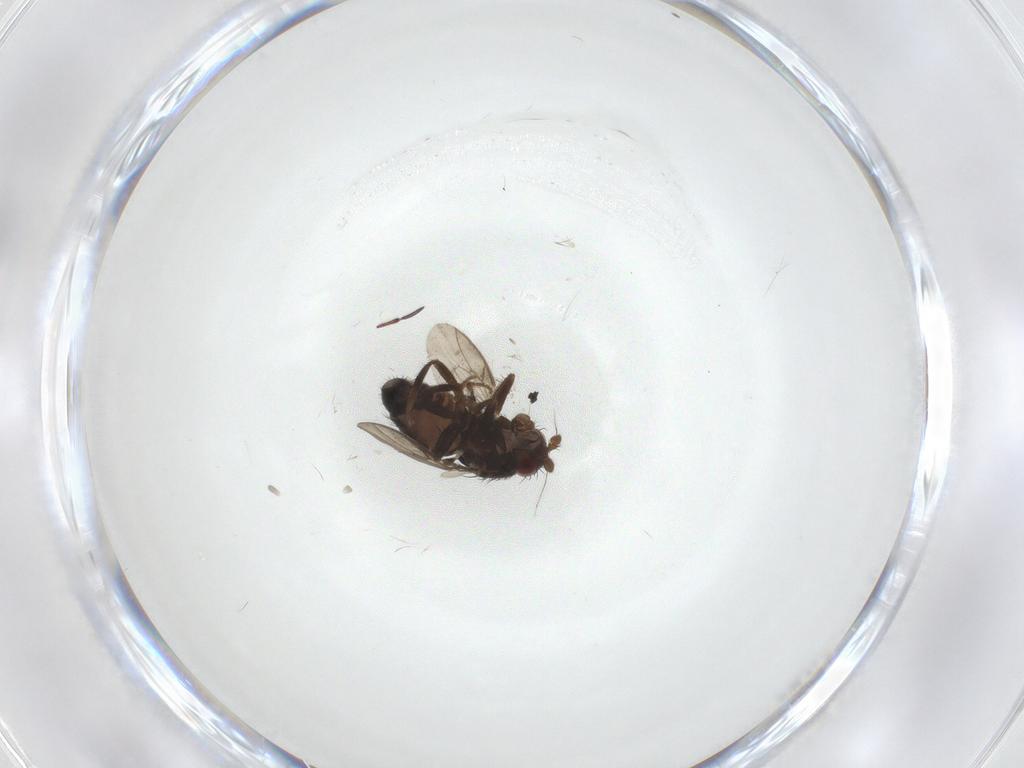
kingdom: Animalia
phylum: Arthropoda
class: Insecta
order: Diptera
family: Sphaeroceridae
